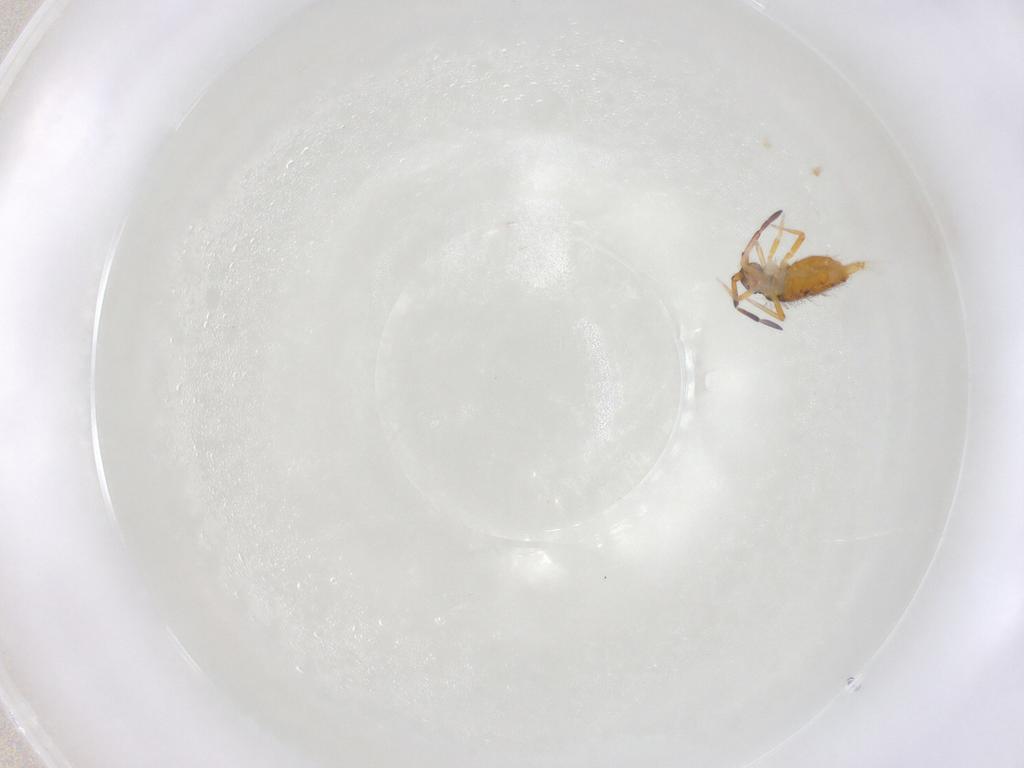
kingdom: Animalia
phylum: Arthropoda
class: Collembola
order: Entomobryomorpha
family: Entomobryidae
